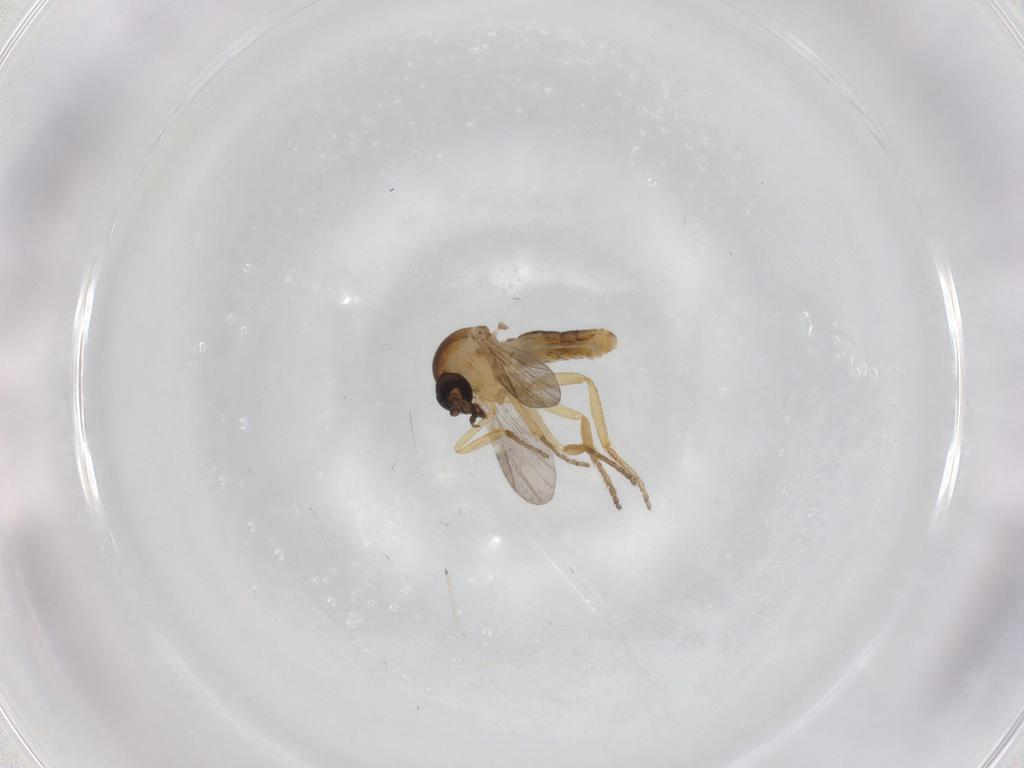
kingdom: Animalia
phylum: Arthropoda
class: Insecta
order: Diptera
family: Ceratopogonidae
